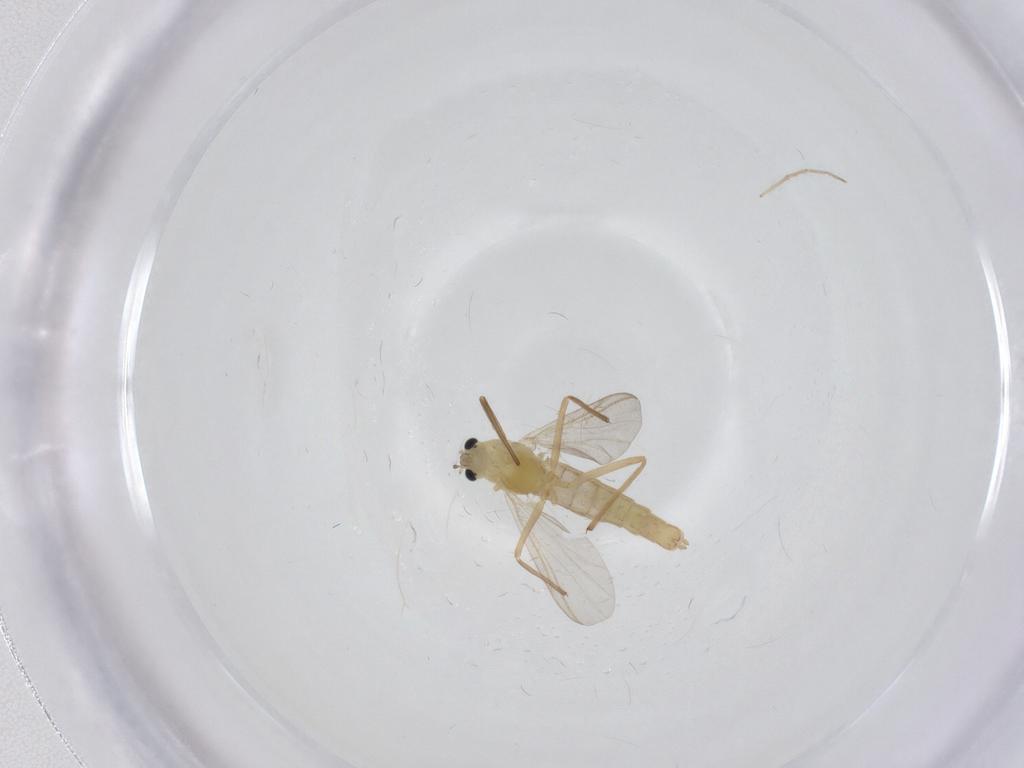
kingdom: Animalia
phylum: Arthropoda
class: Insecta
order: Diptera
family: Chironomidae
